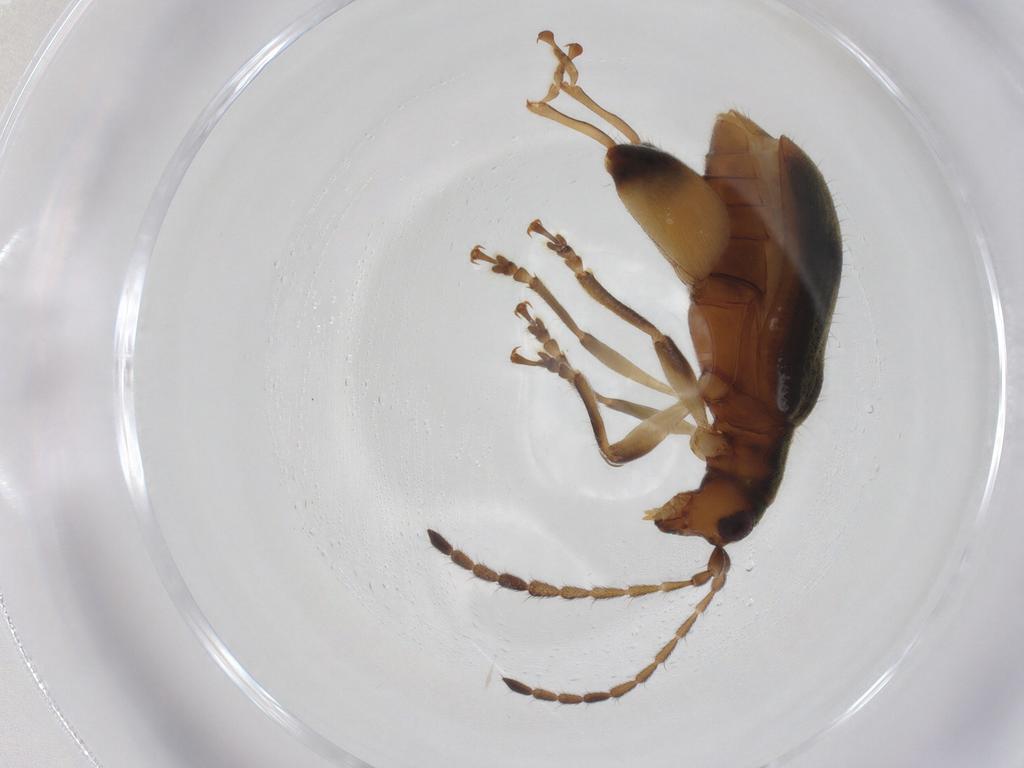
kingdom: Animalia
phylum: Arthropoda
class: Insecta
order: Coleoptera
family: Chrysomelidae
